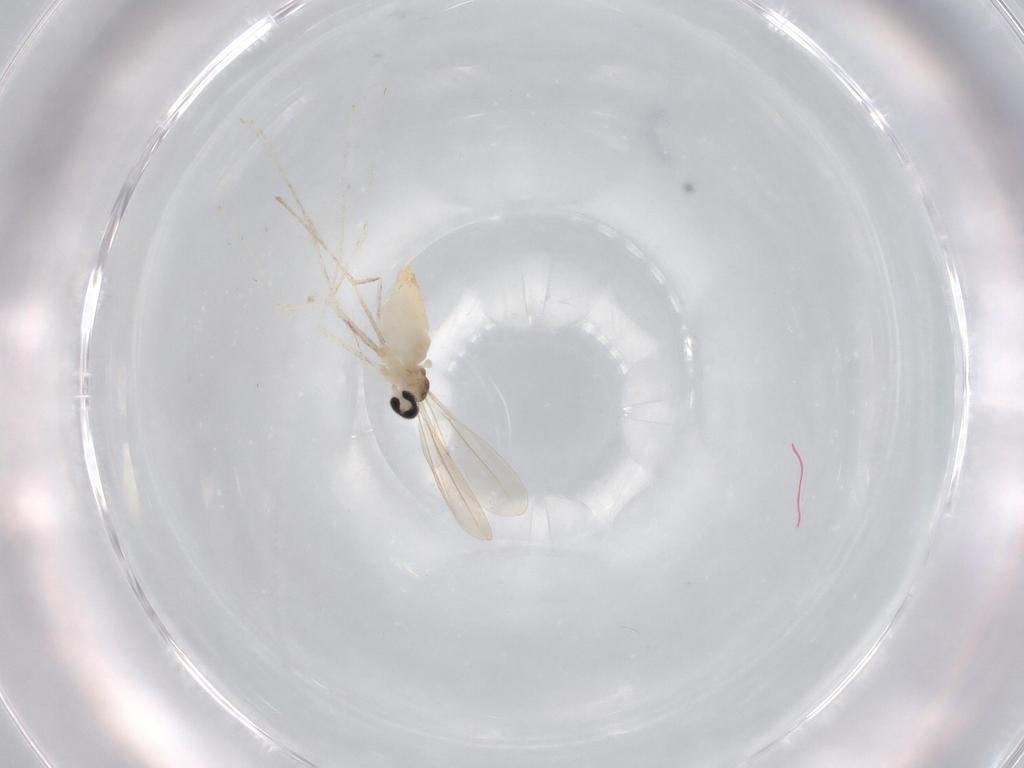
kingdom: Animalia
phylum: Arthropoda
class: Insecta
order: Diptera
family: Cecidomyiidae
